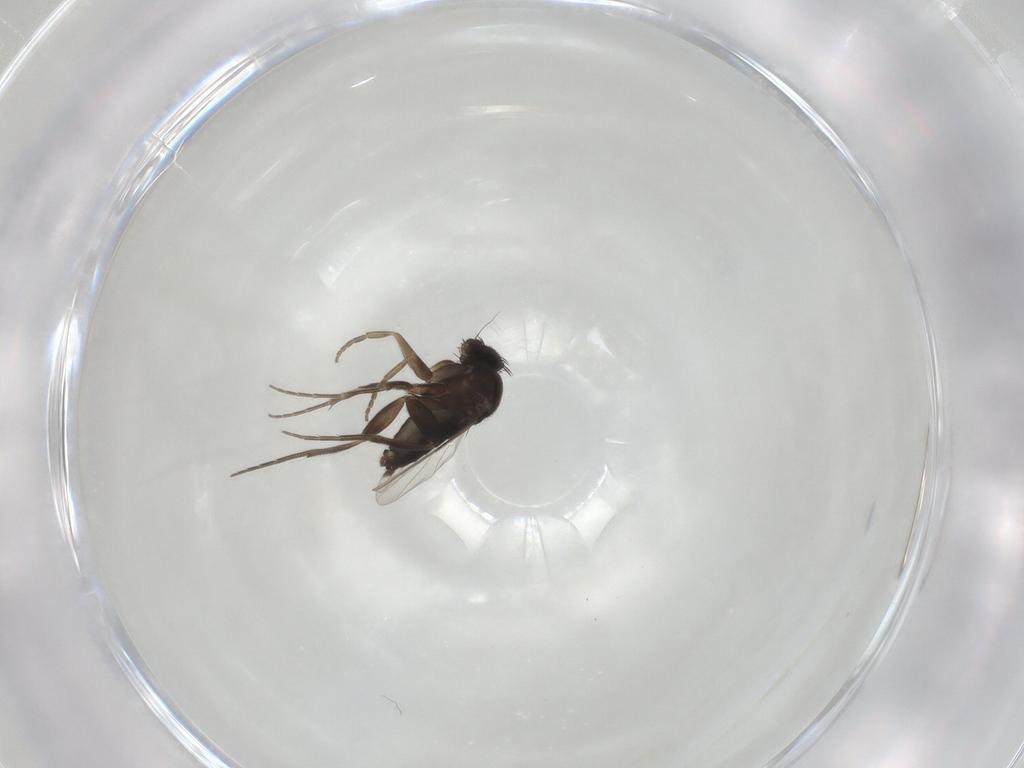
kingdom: Animalia
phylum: Arthropoda
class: Insecta
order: Diptera
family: Phoridae
